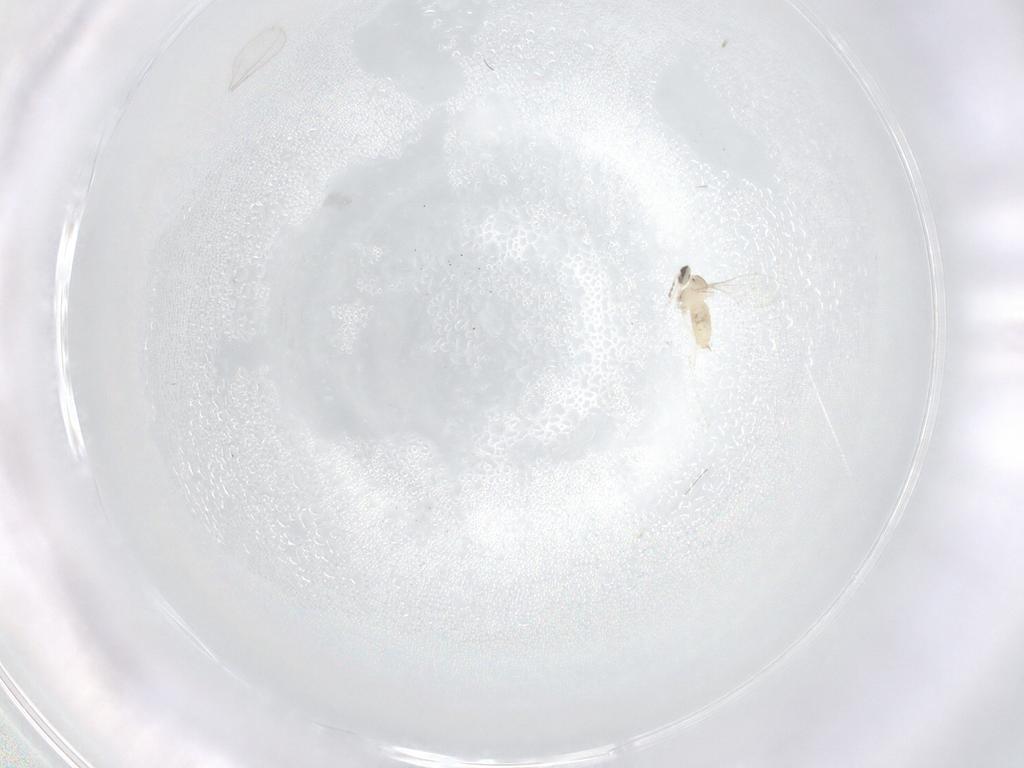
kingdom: Animalia
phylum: Arthropoda
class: Insecta
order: Diptera
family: Cecidomyiidae
